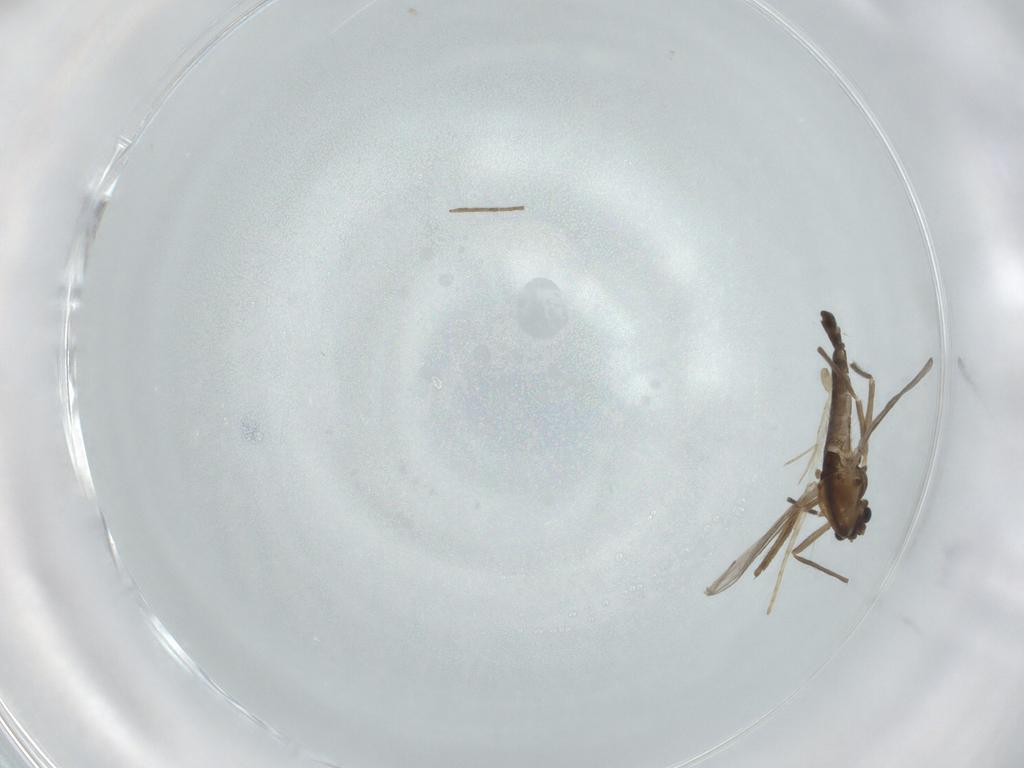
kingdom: Animalia
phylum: Arthropoda
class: Insecta
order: Diptera
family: Chironomidae
